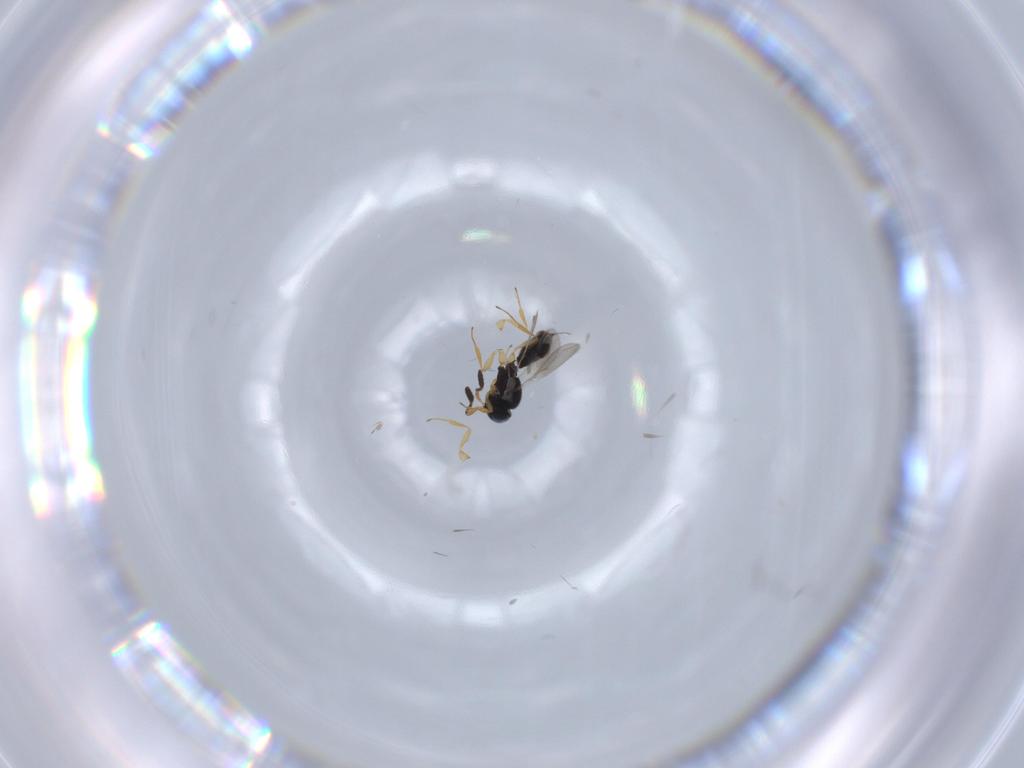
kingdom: Animalia
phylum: Arthropoda
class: Insecta
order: Hymenoptera
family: Scelionidae
